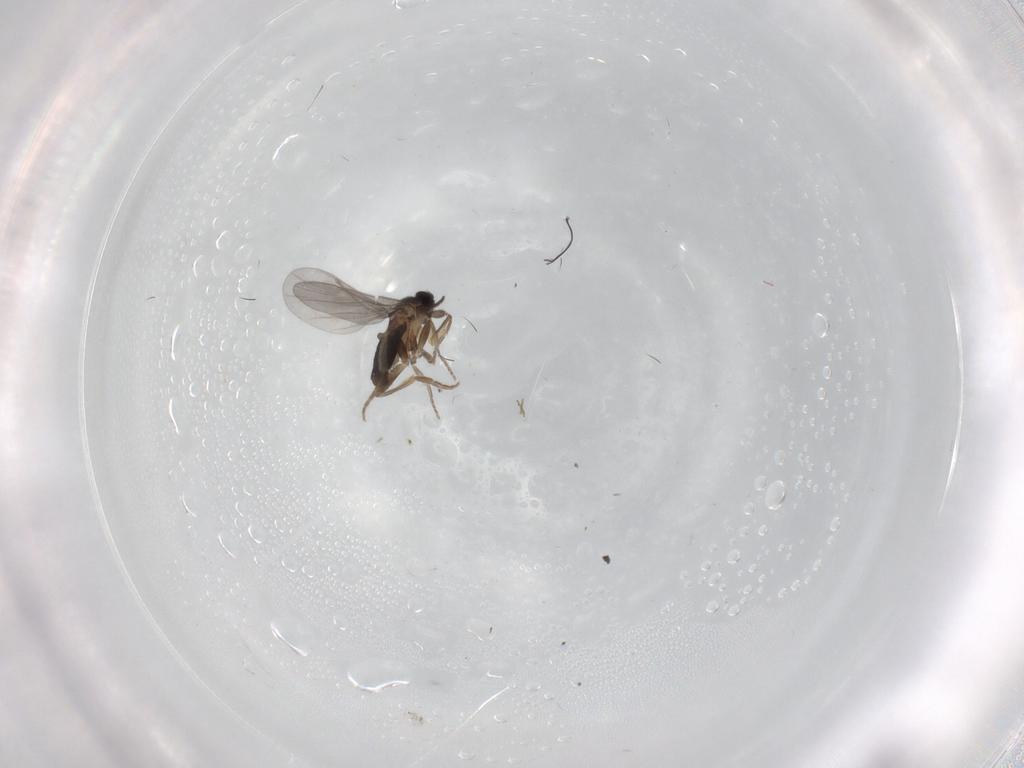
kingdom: Animalia
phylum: Arthropoda
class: Insecta
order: Diptera
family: Phoridae
